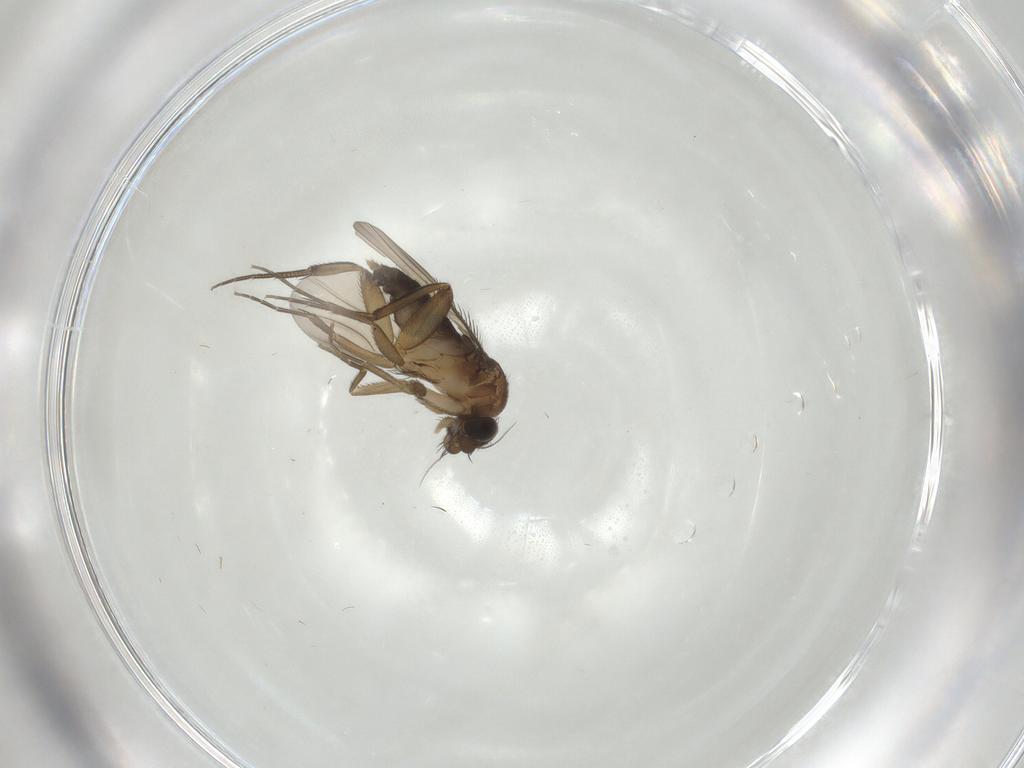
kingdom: Animalia
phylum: Arthropoda
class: Insecta
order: Diptera
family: Phoridae
